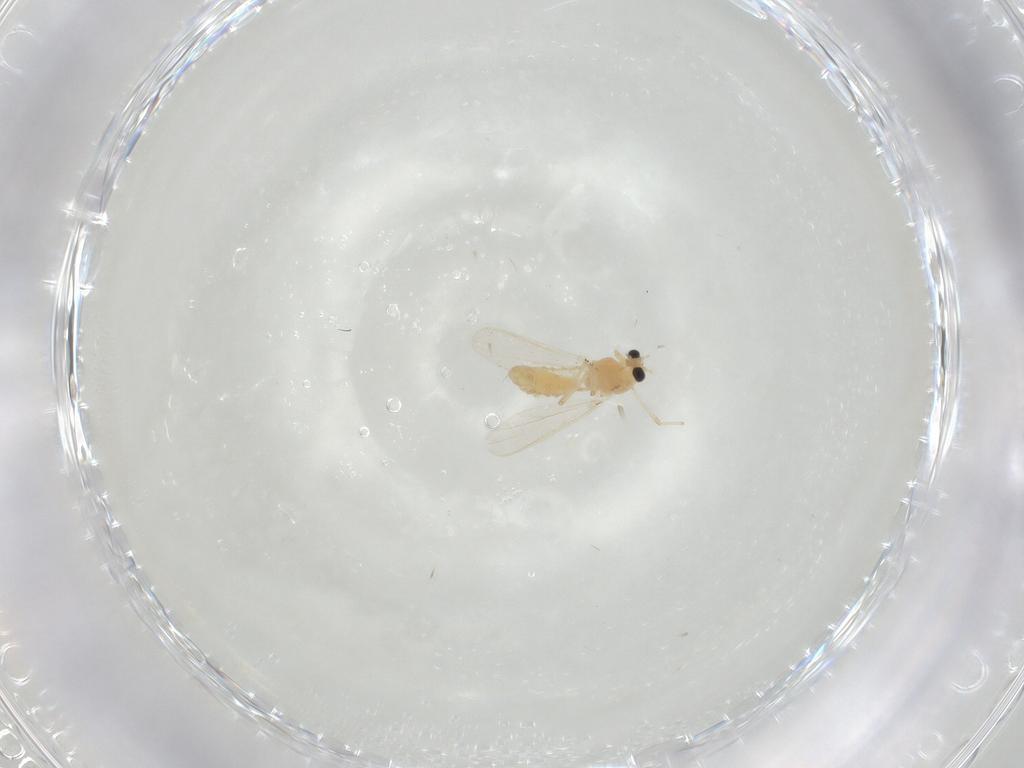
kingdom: Animalia
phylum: Arthropoda
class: Insecta
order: Diptera
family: Chironomidae
